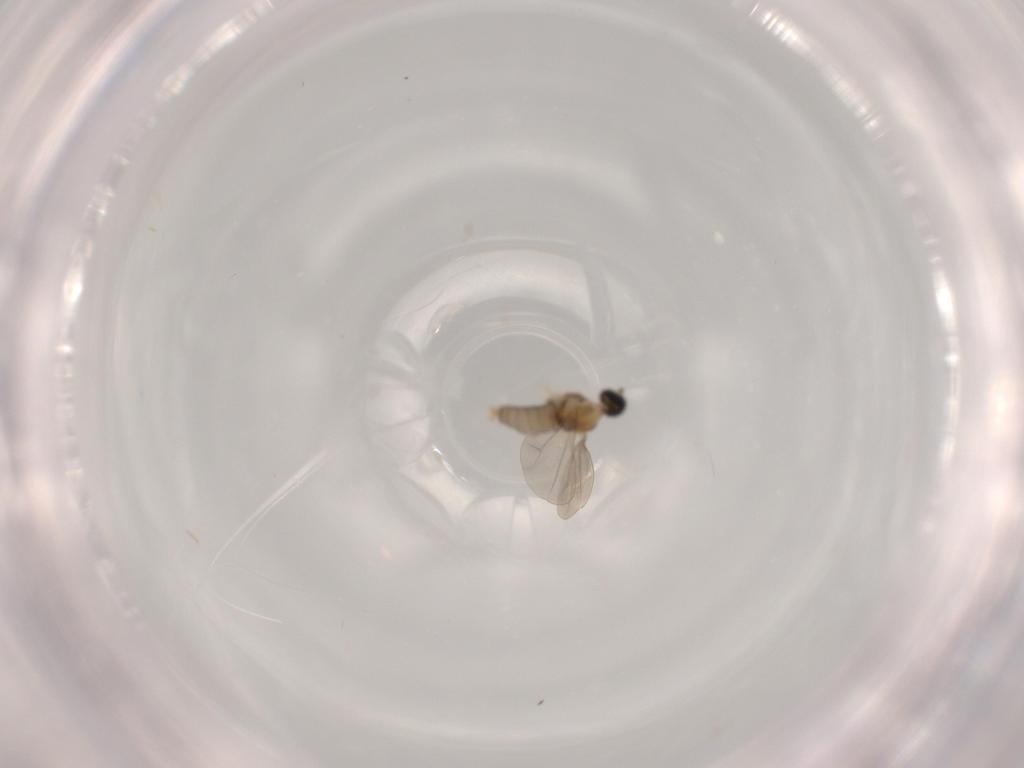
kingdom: Animalia
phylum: Arthropoda
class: Insecta
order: Diptera
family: Cecidomyiidae
